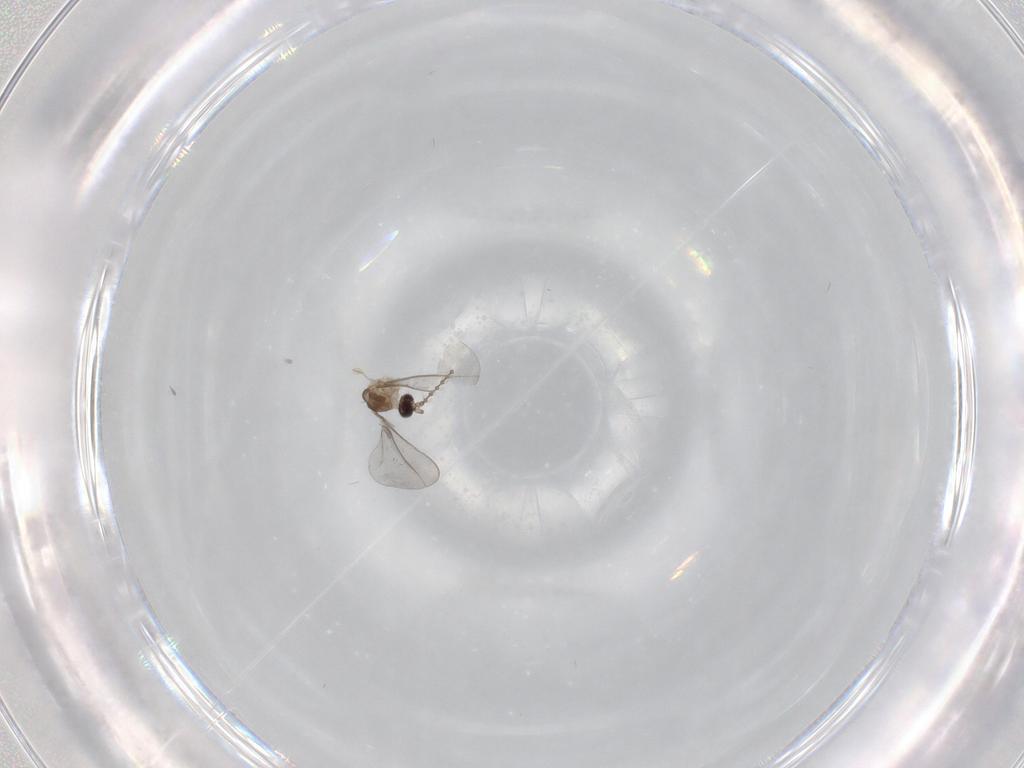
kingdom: Animalia
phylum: Arthropoda
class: Insecta
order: Diptera
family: Cecidomyiidae
